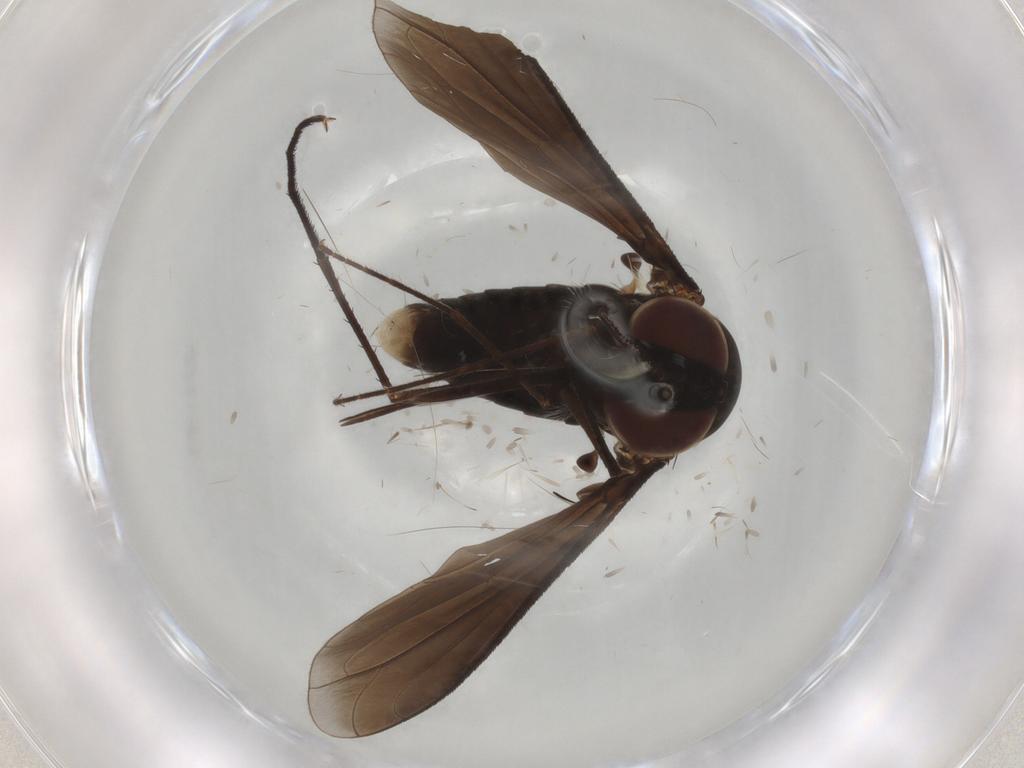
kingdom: Animalia
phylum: Arthropoda
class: Insecta
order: Diptera
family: Bombyliidae
